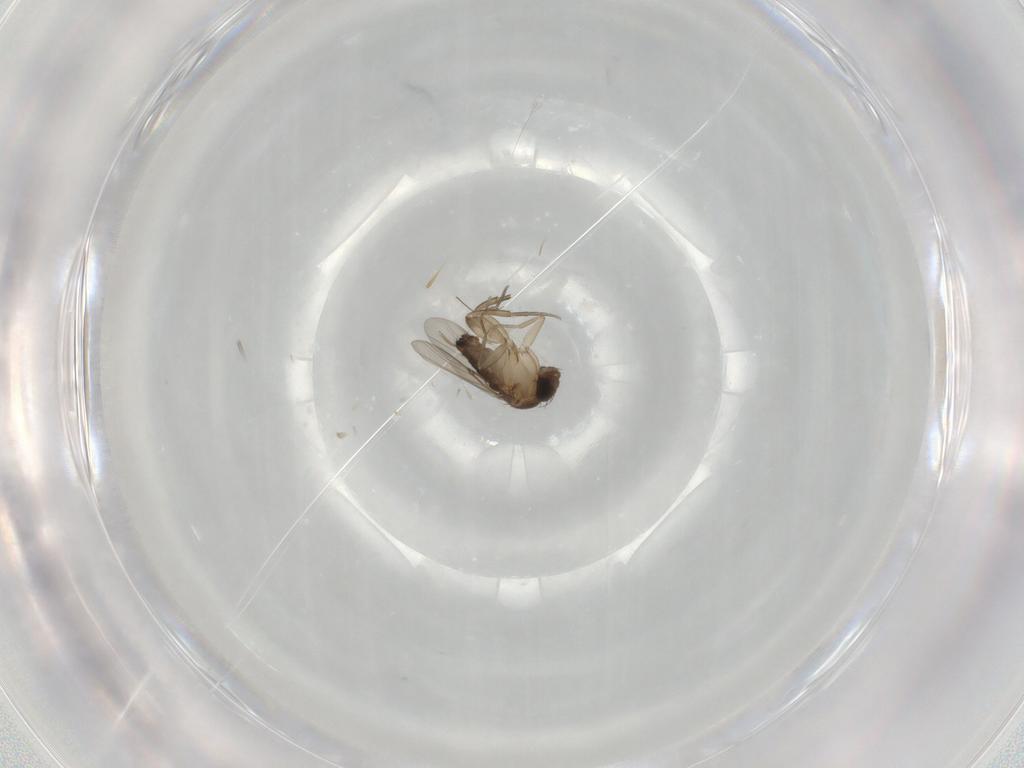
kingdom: Animalia
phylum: Arthropoda
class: Insecta
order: Diptera
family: Phoridae
